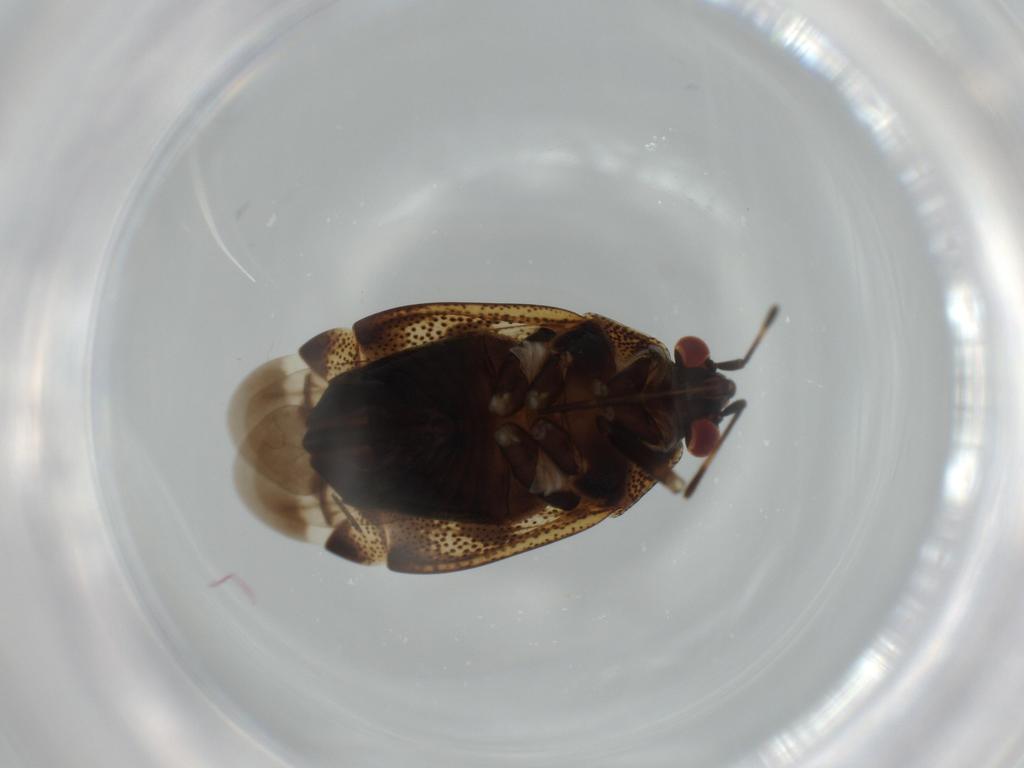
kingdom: Animalia
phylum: Arthropoda
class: Insecta
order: Hemiptera
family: Miridae
